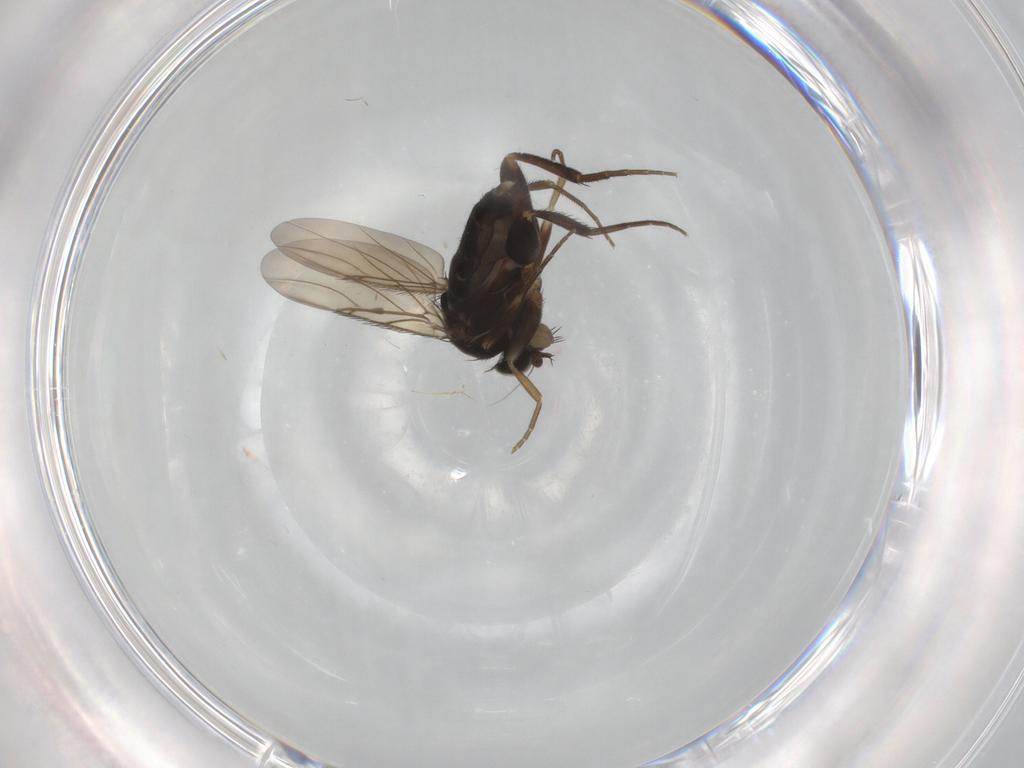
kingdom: Animalia
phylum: Arthropoda
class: Insecta
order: Diptera
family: Phoridae
